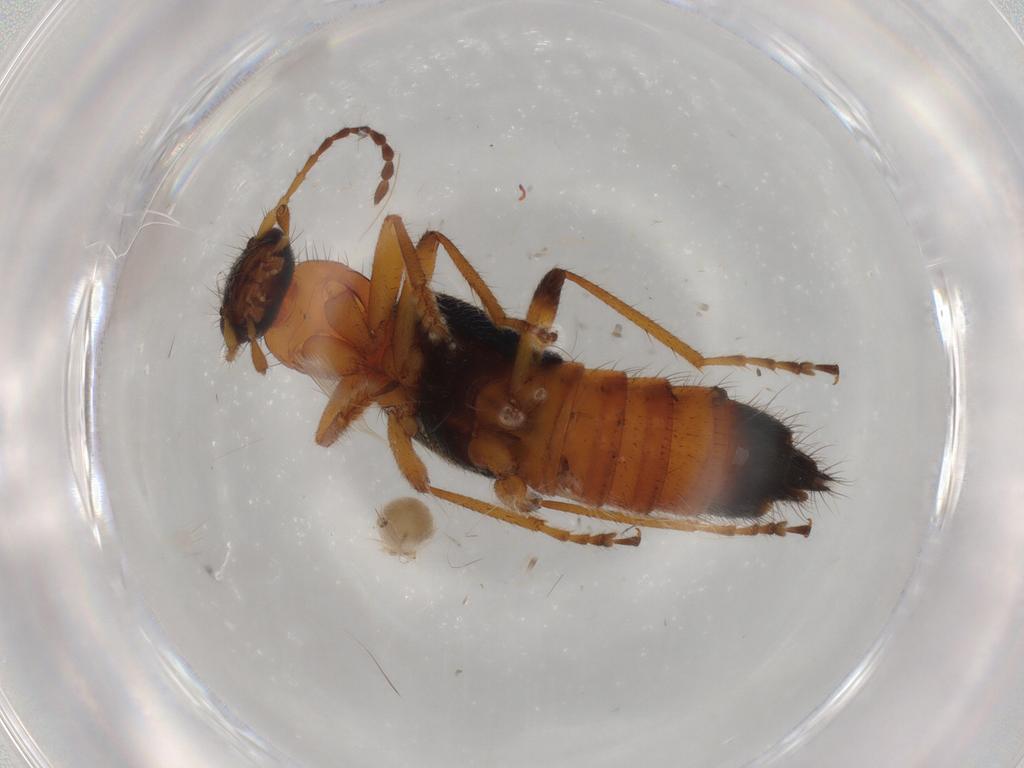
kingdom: Animalia
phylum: Arthropoda
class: Insecta
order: Coleoptera
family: Staphylinidae
